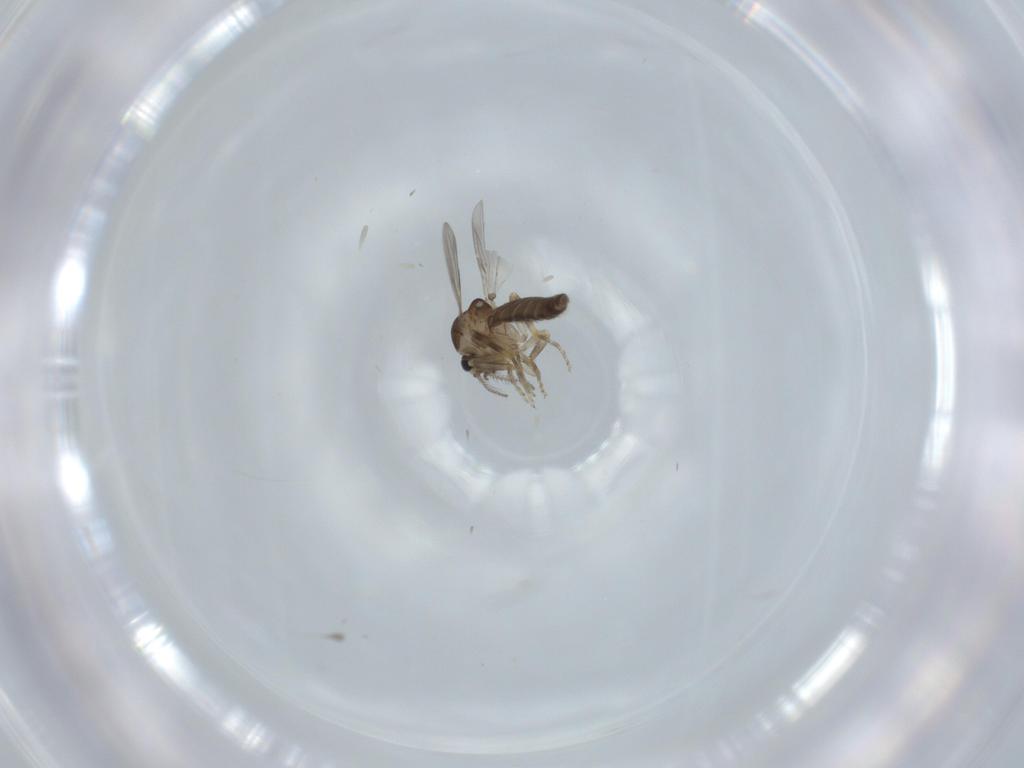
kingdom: Animalia
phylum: Arthropoda
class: Insecta
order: Diptera
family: Ceratopogonidae
